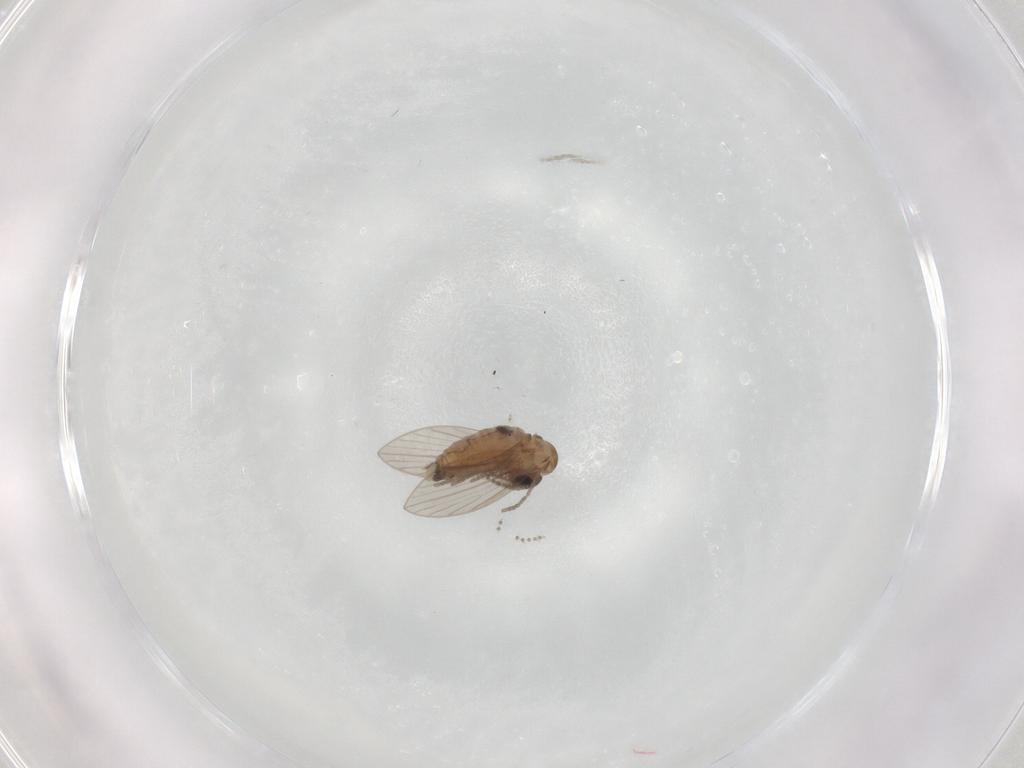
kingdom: Animalia
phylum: Arthropoda
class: Insecta
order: Diptera
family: Psychodidae
